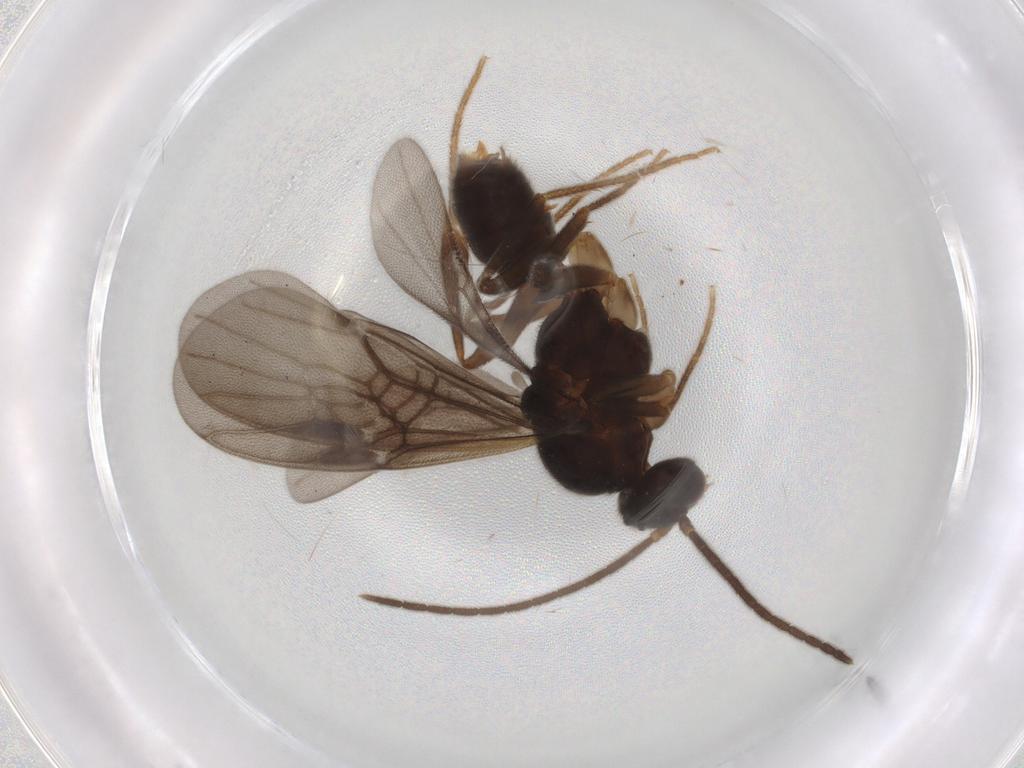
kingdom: Animalia
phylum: Arthropoda
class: Insecta
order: Hymenoptera
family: Formicidae
